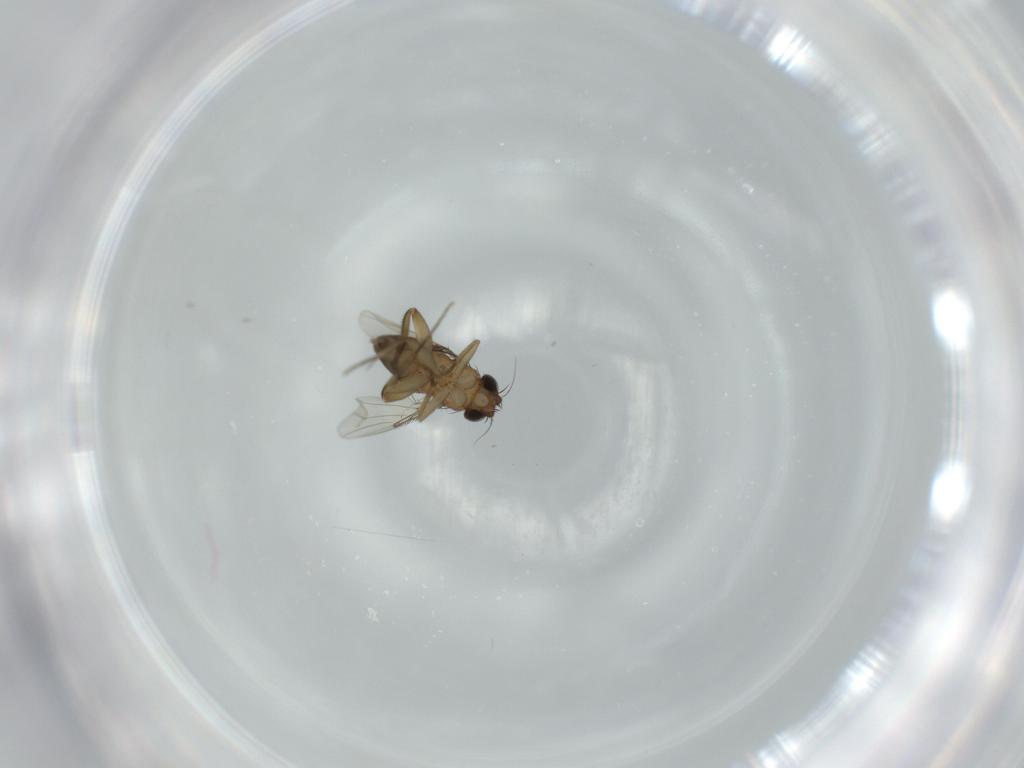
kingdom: Animalia
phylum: Arthropoda
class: Insecta
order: Diptera
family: Phoridae
